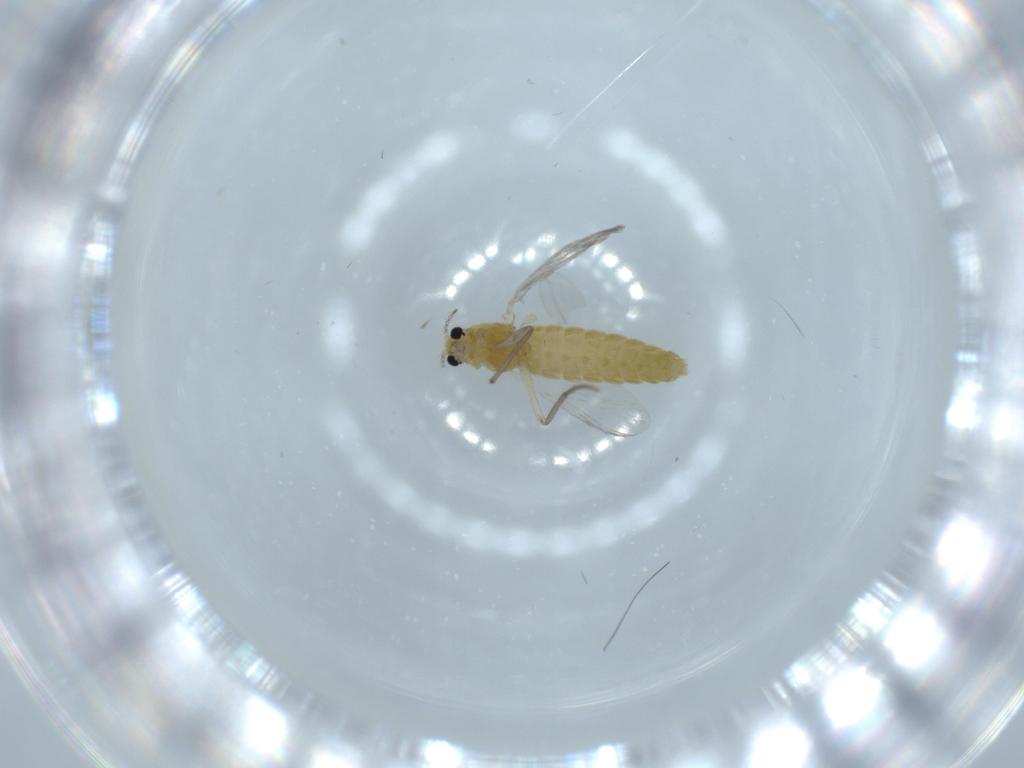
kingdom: Animalia
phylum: Arthropoda
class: Insecta
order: Diptera
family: Chironomidae
